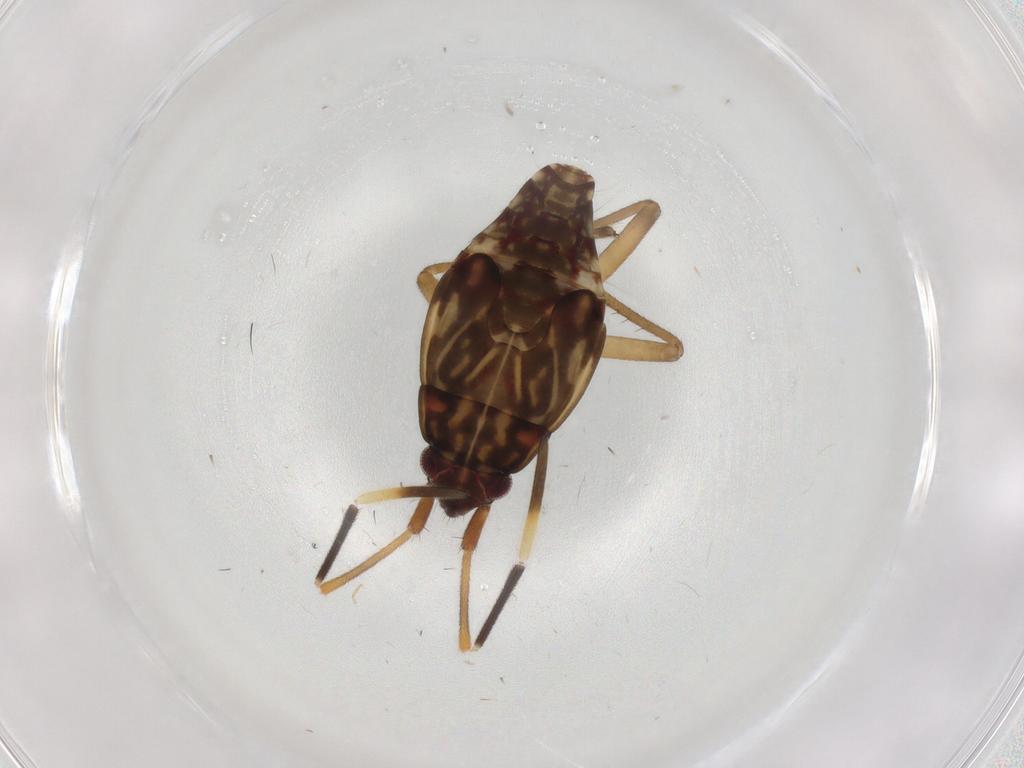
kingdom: Animalia
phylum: Arthropoda
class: Insecta
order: Hemiptera
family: Rhyparochromidae
